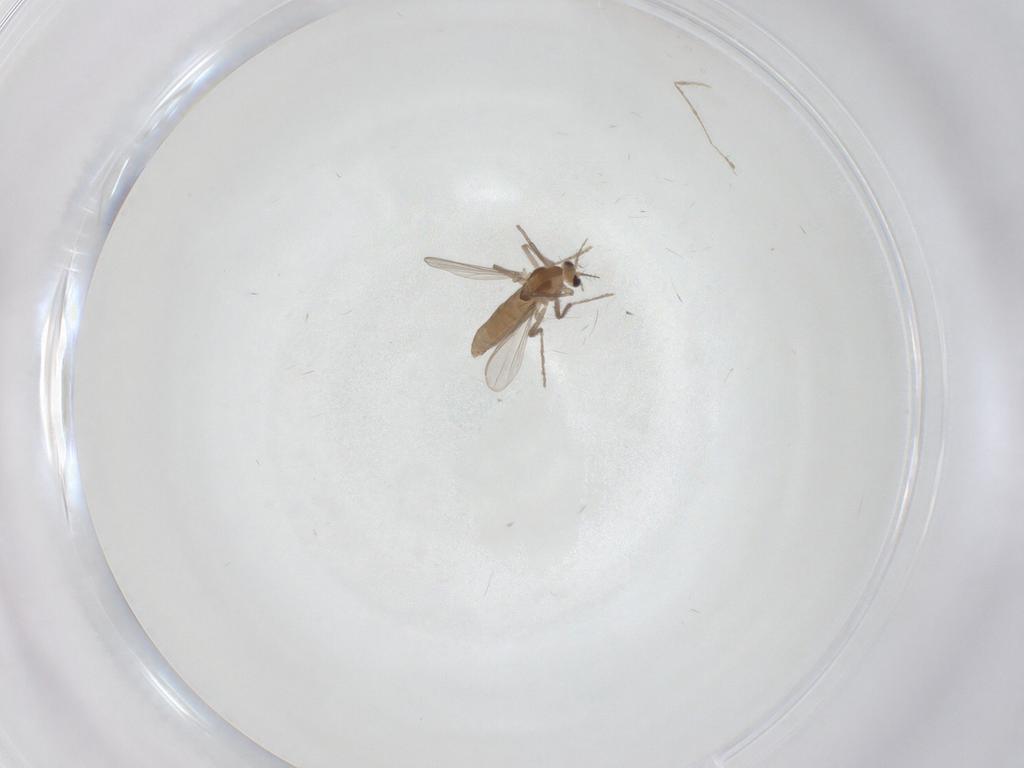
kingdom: Animalia
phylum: Arthropoda
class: Insecta
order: Diptera
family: Chironomidae
